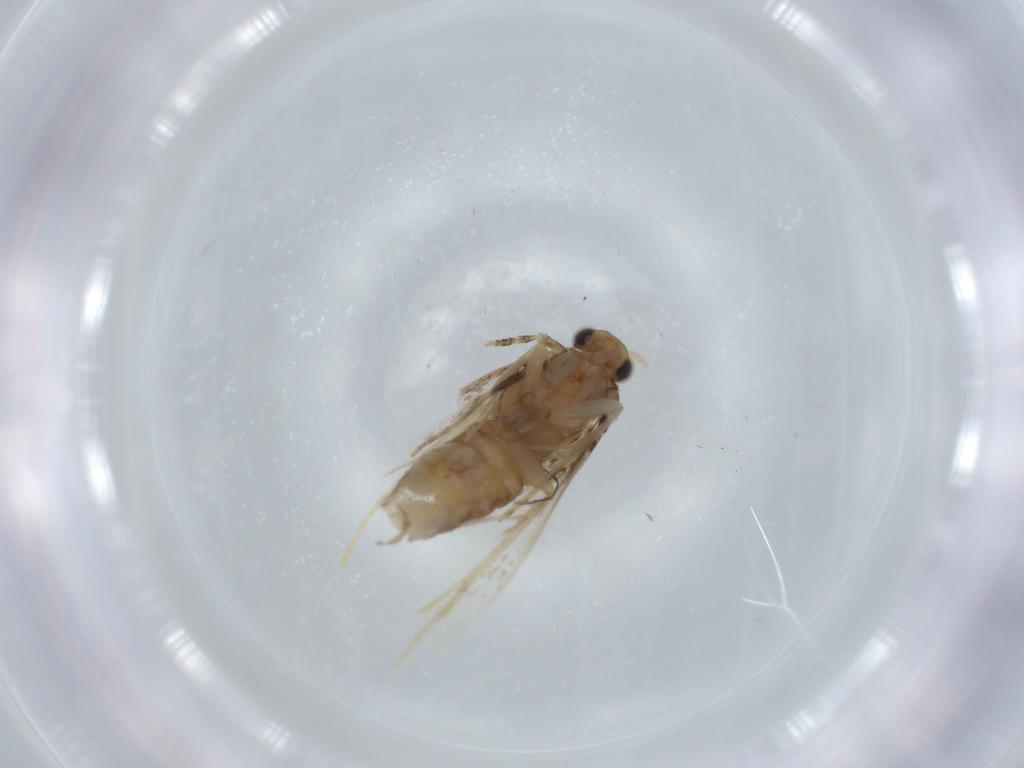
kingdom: Animalia
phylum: Arthropoda
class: Insecta
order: Lepidoptera
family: Tineidae
